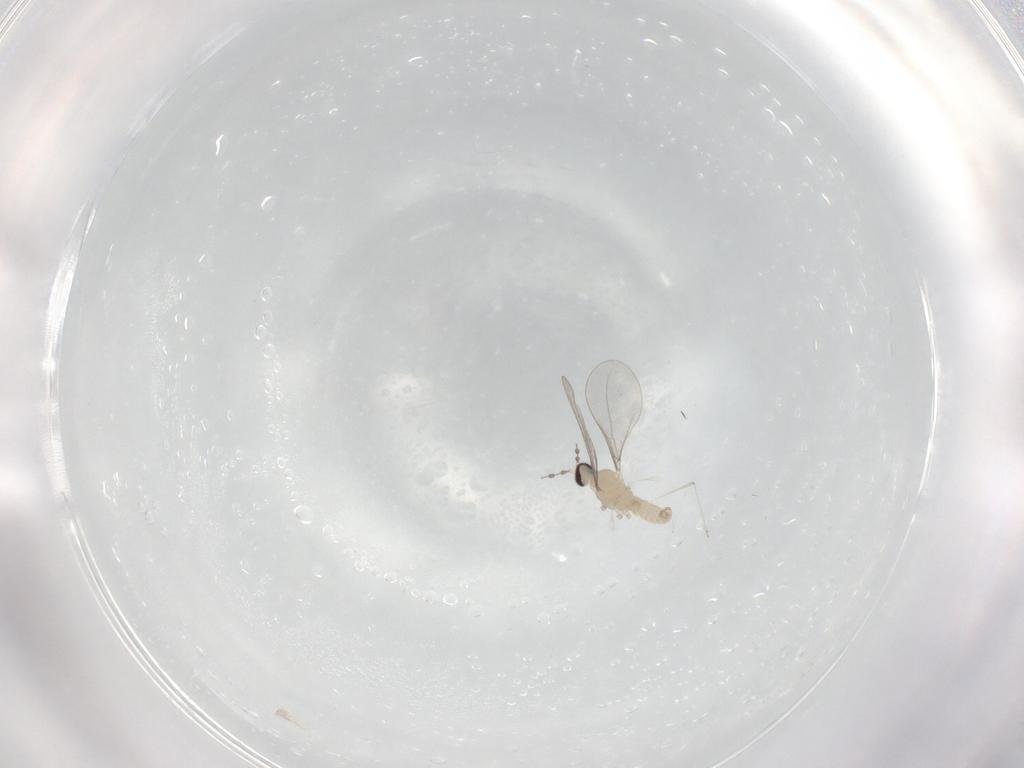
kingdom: Animalia
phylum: Arthropoda
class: Insecta
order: Diptera
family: Cecidomyiidae
